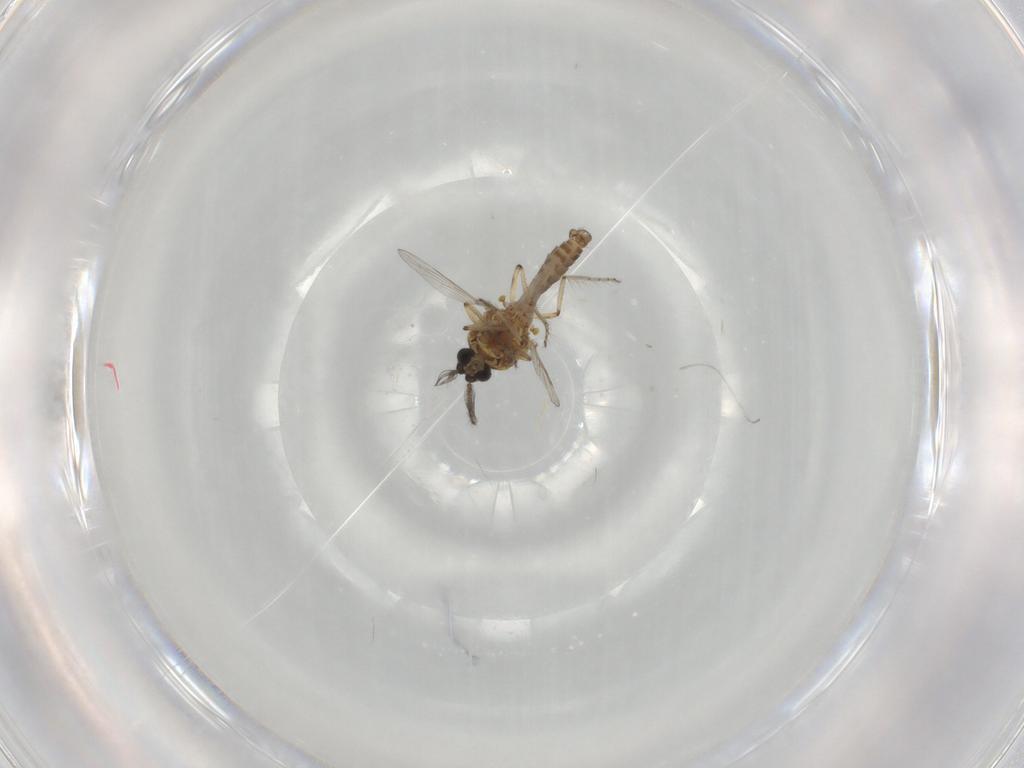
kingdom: Animalia
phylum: Arthropoda
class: Insecta
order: Diptera
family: Ceratopogonidae
